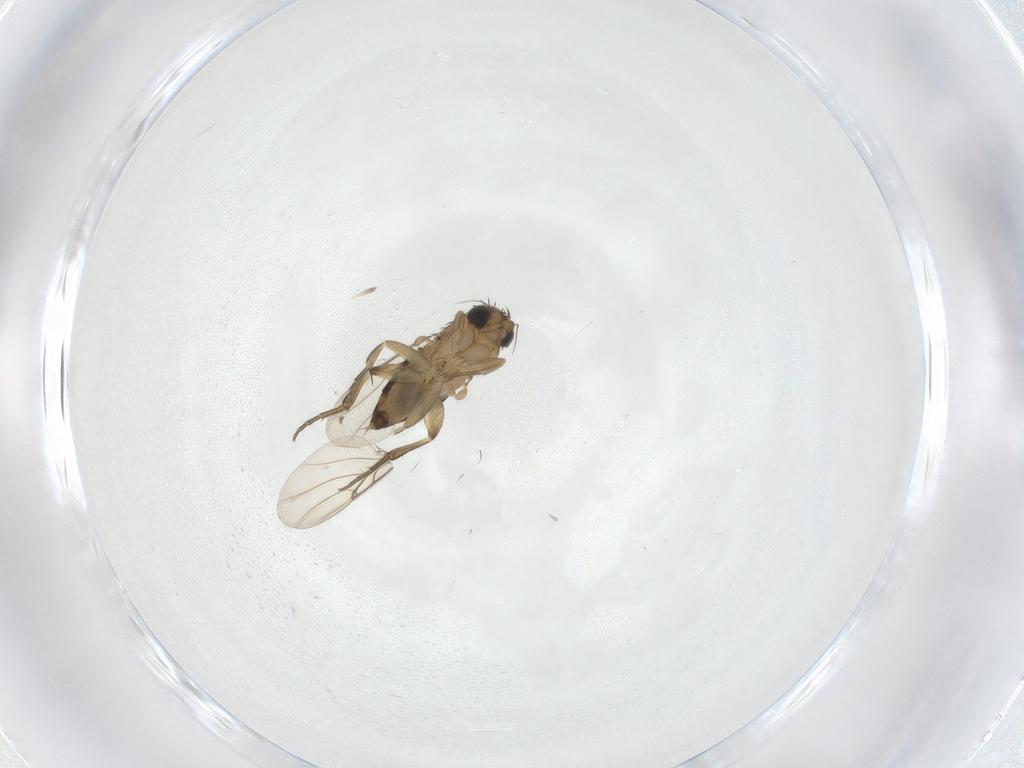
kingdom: Animalia
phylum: Arthropoda
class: Insecta
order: Diptera
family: Phoridae
